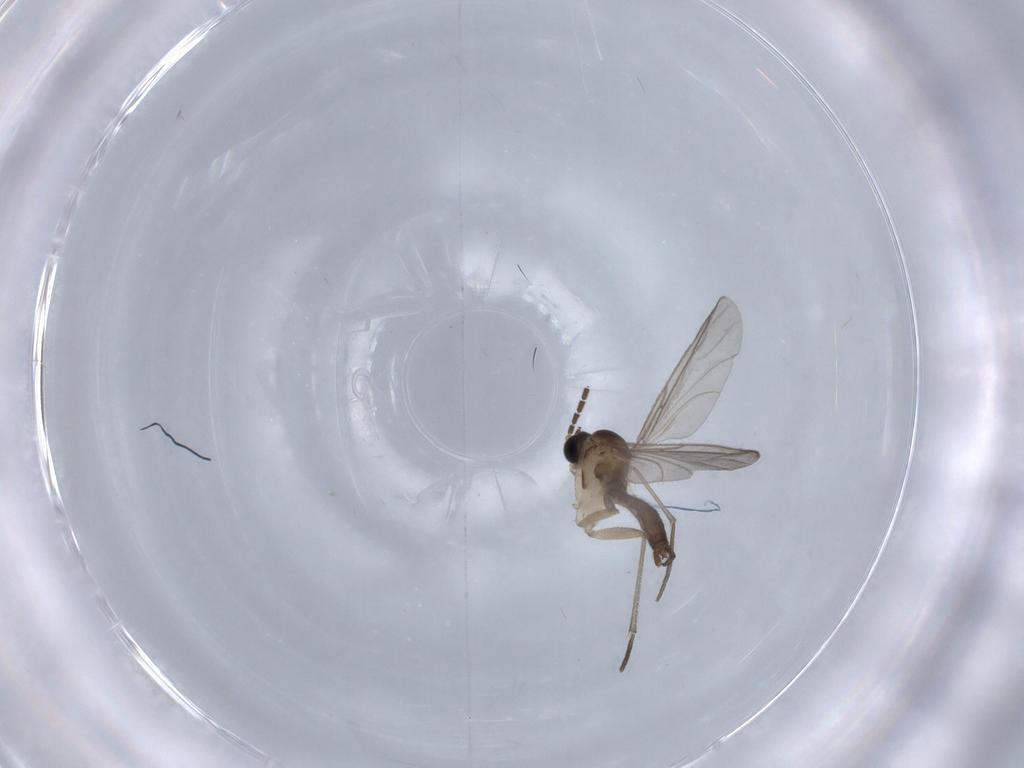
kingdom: Animalia
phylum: Arthropoda
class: Insecta
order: Diptera
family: Sciaridae
